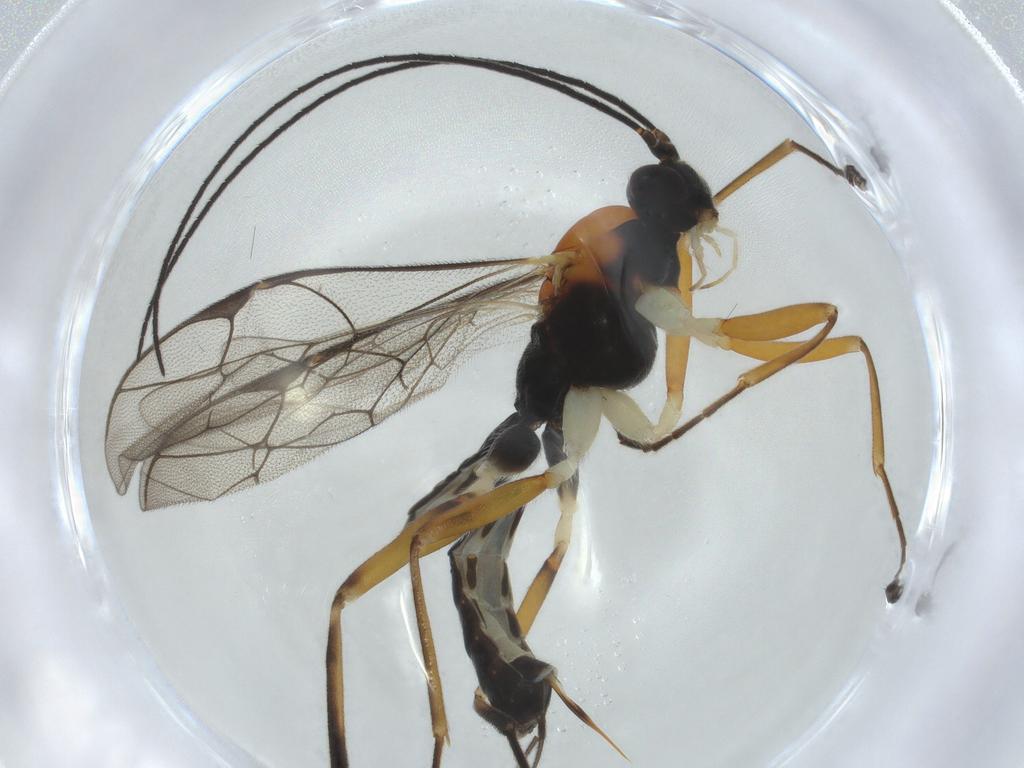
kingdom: Animalia
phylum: Arthropoda
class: Insecta
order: Hymenoptera
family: Ichneumonidae
